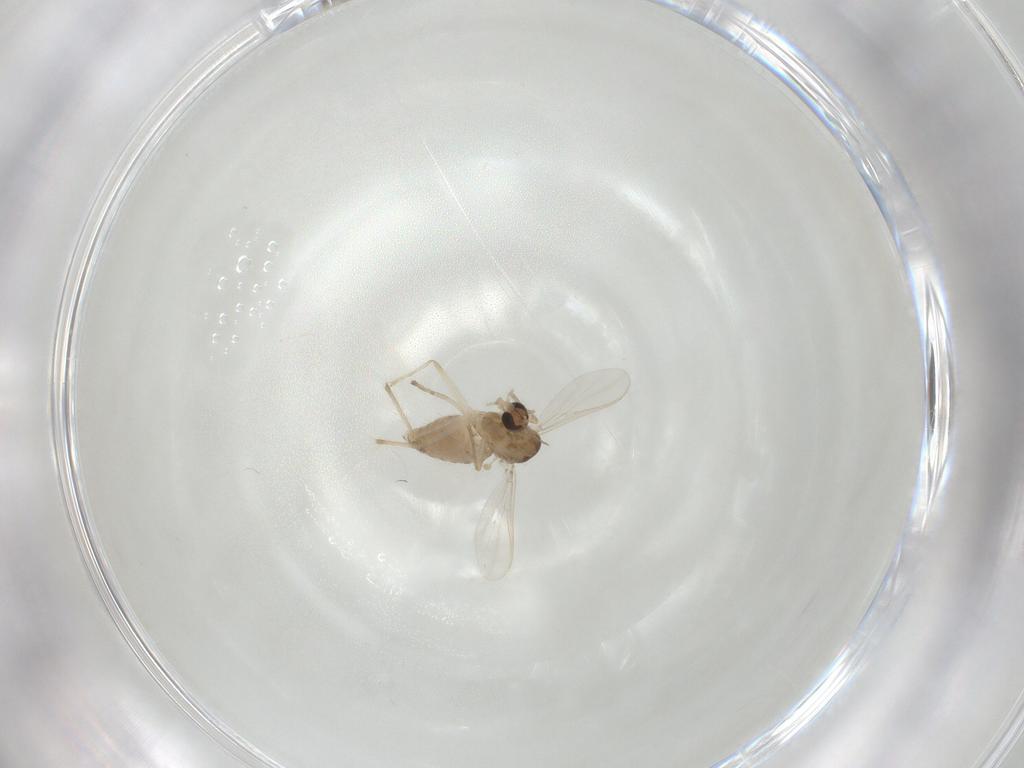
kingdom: Animalia
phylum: Arthropoda
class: Insecta
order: Diptera
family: Chironomidae
